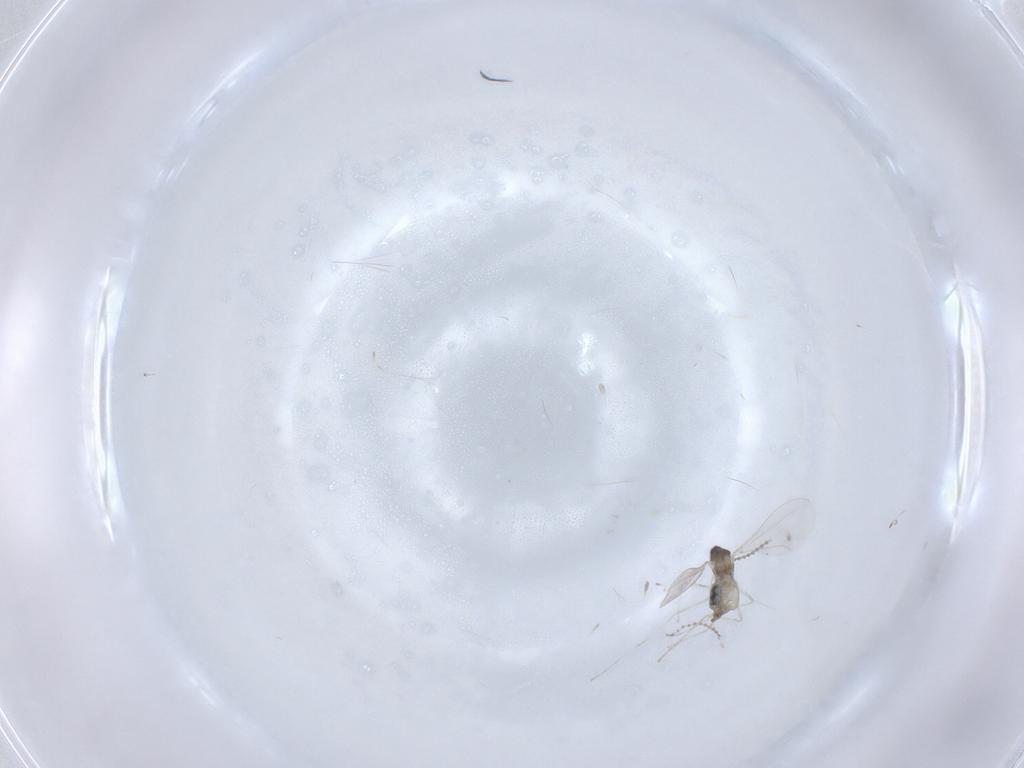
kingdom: Animalia
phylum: Arthropoda
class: Insecta
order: Diptera
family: Cecidomyiidae
